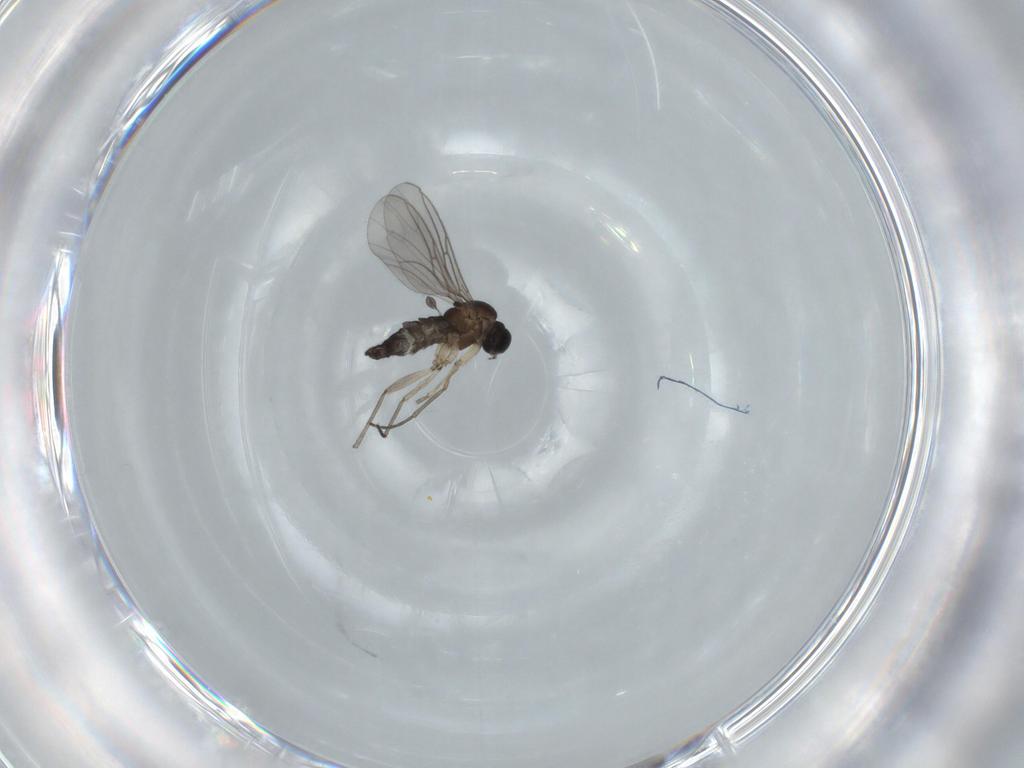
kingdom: Animalia
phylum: Arthropoda
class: Insecta
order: Diptera
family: Sciaridae
